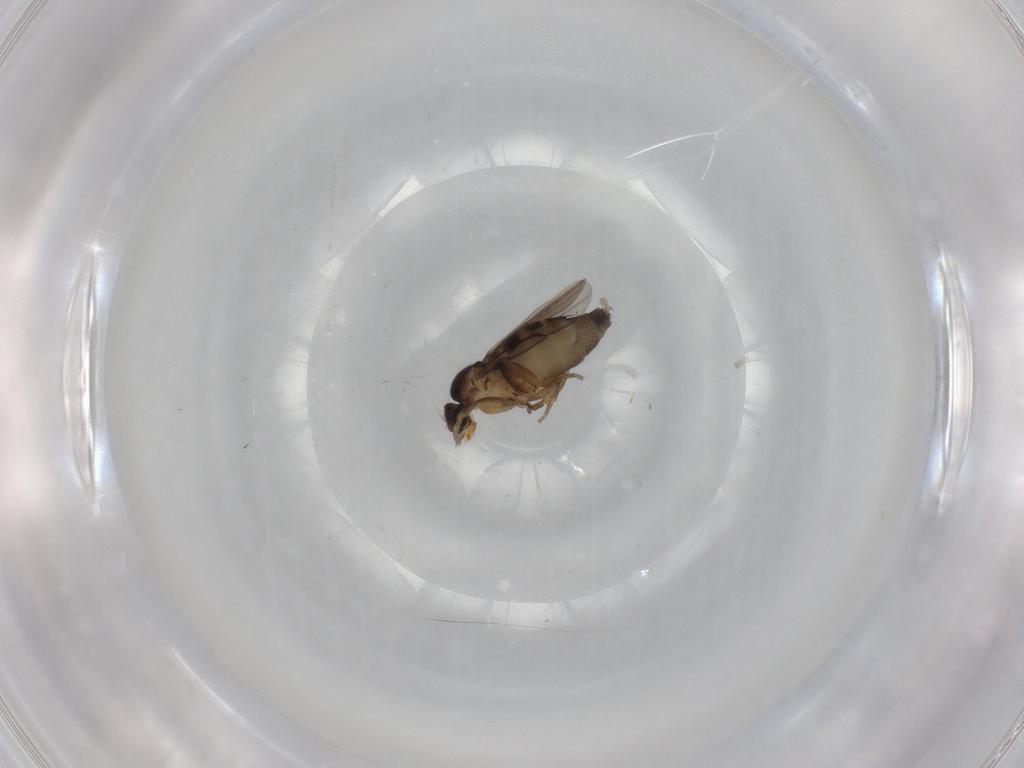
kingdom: Animalia
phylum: Arthropoda
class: Insecta
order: Diptera
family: Phoridae
